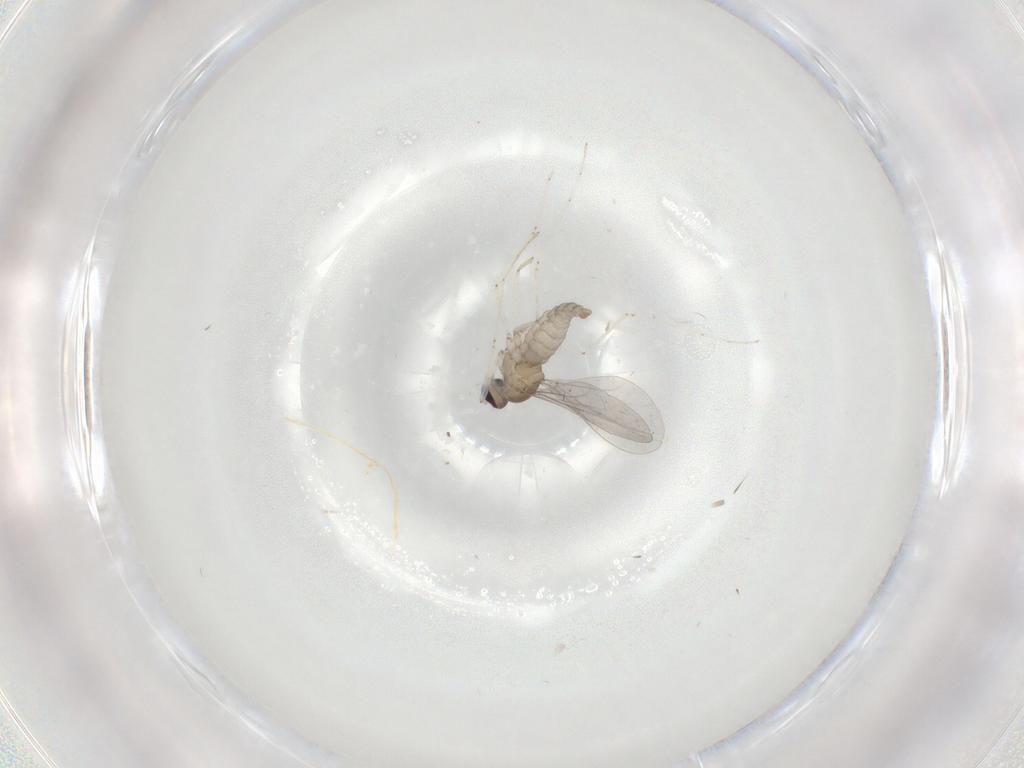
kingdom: Animalia
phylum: Arthropoda
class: Insecta
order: Diptera
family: Cecidomyiidae
